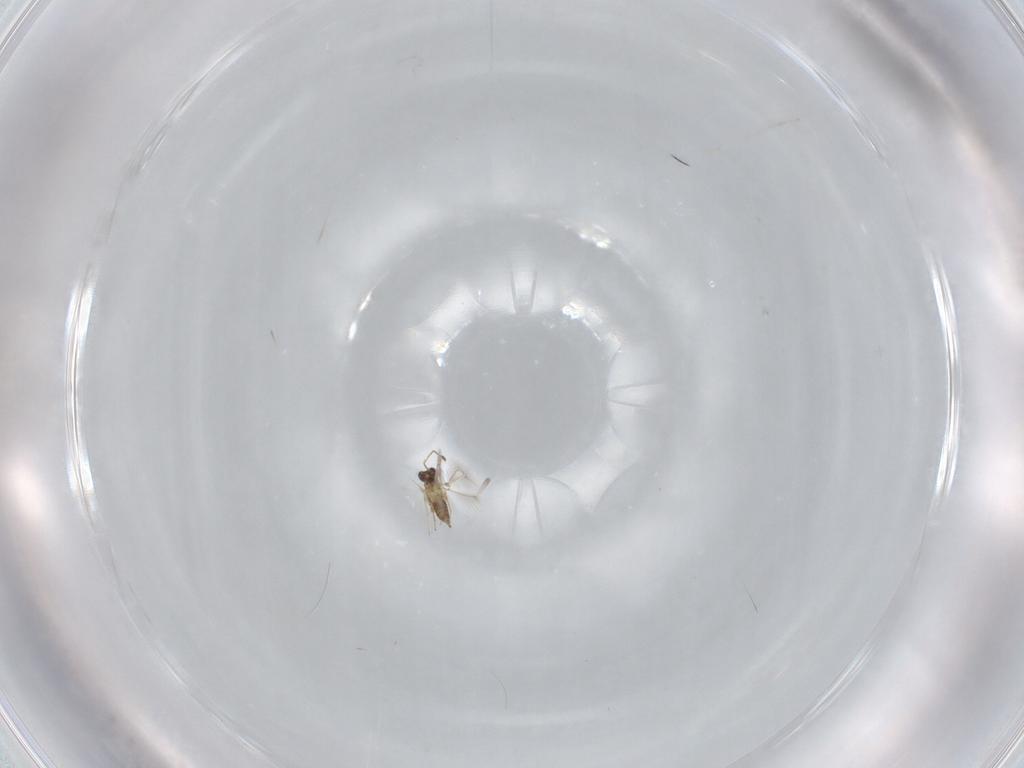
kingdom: Animalia
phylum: Arthropoda
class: Insecta
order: Hymenoptera
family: Mymaridae
